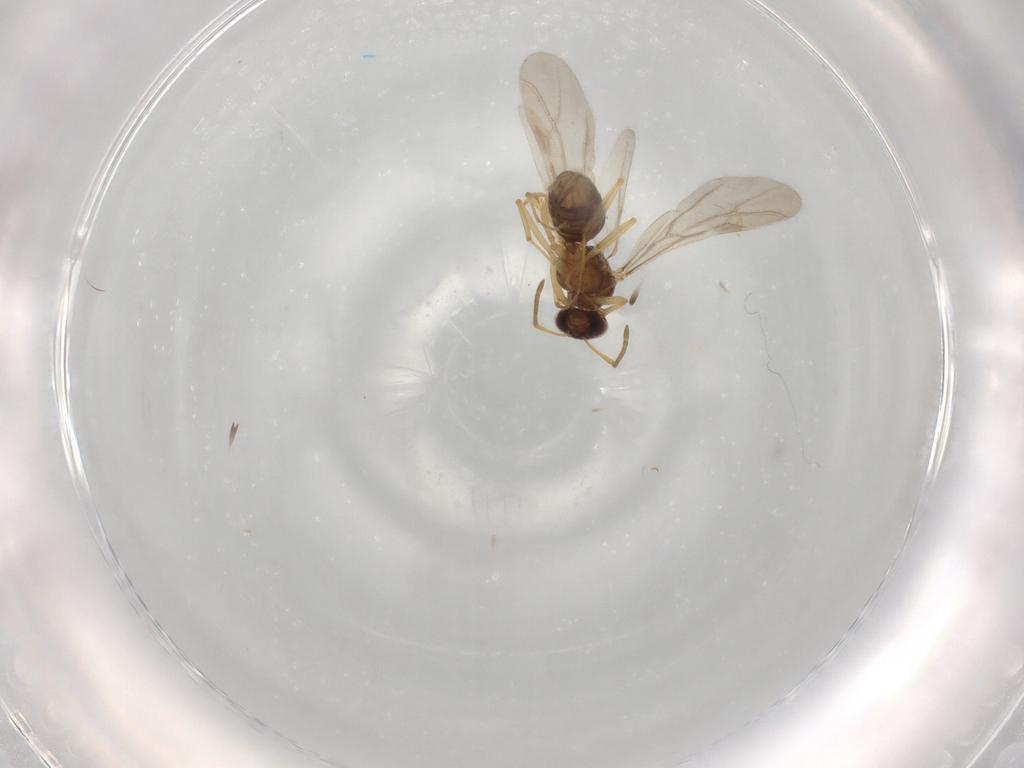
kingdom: Animalia
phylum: Arthropoda
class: Insecta
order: Hymenoptera
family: Formicidae
